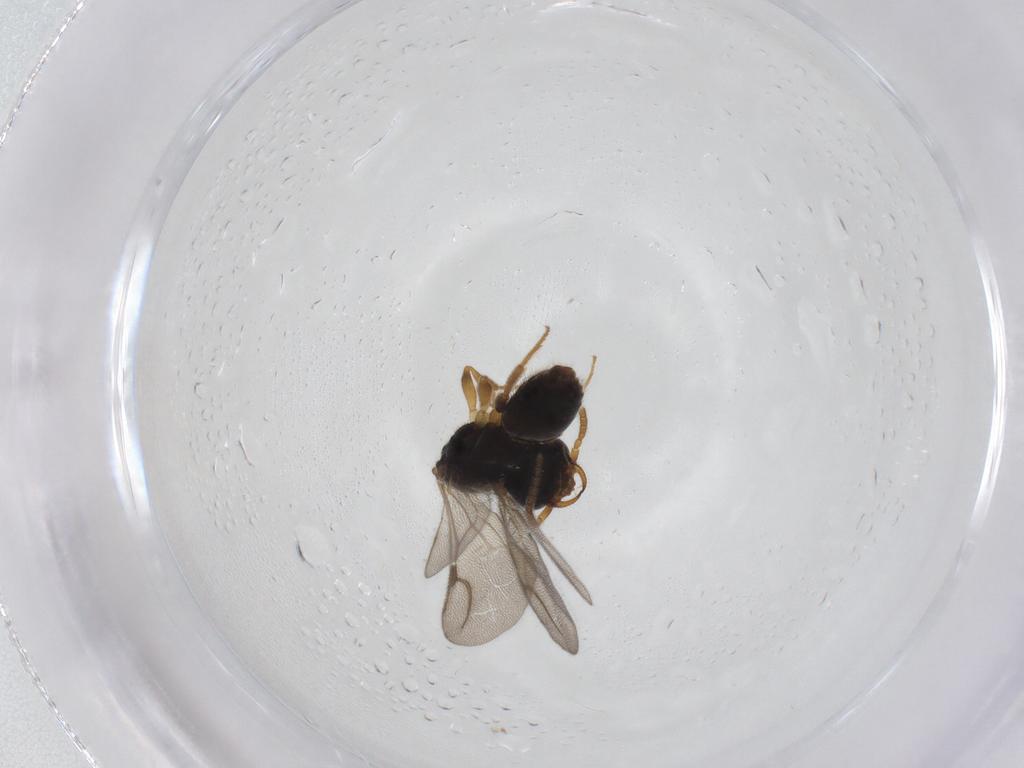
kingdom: Animalia
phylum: Arthropoda
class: Insecta
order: Hymenoptera
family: Bethylidae
